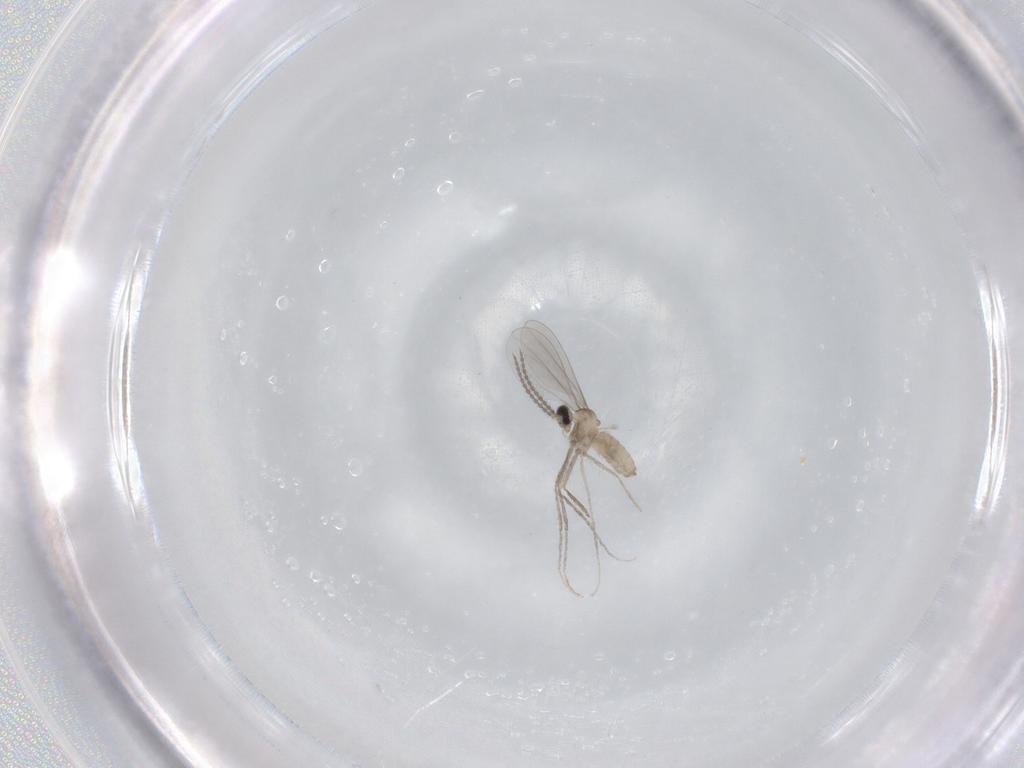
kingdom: Animalia
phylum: Arthropoda
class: Insecta
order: Diptera
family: Cecidomyiidae
